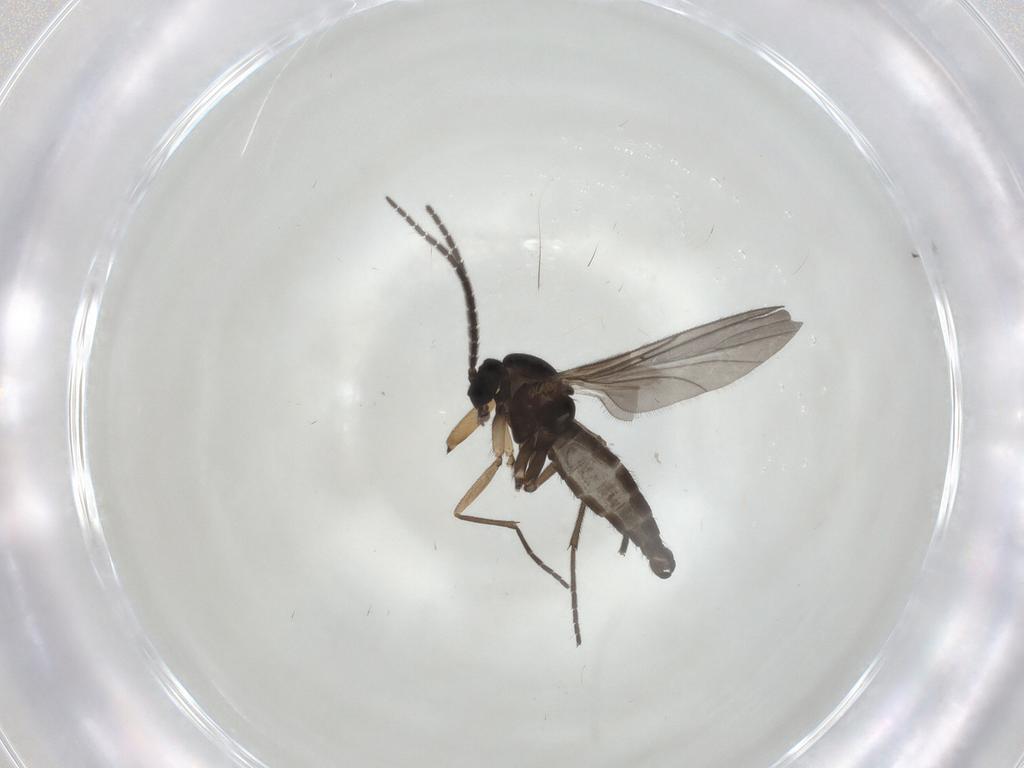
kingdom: Animalia
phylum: Arthropoda
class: Insecta
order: Diptera
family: Sciaridae
